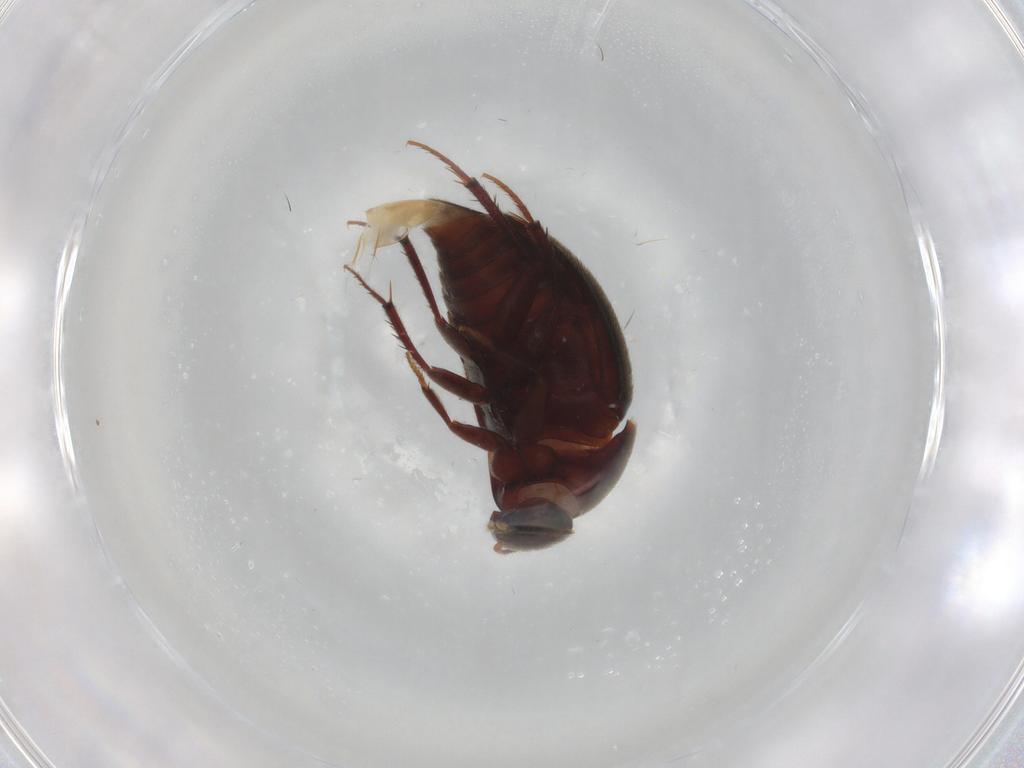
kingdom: Animalia
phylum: Arthropoda
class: Insecta
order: Coleoptera
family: Leiodidae
